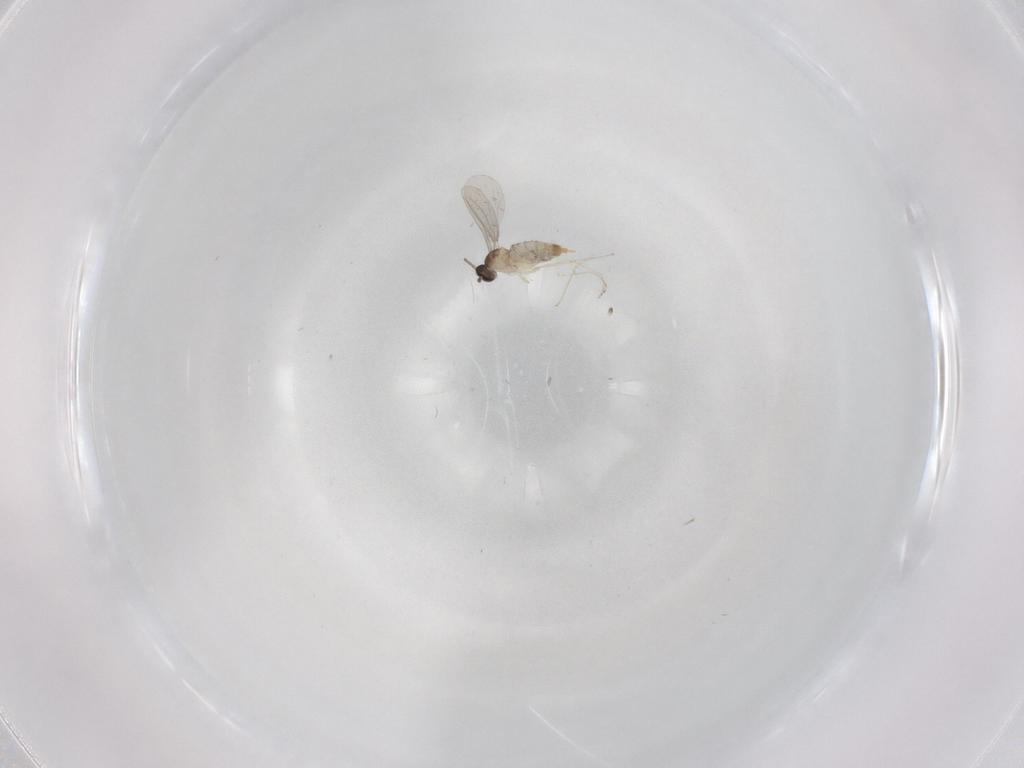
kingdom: Animalia
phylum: Arthropoda
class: Insecta
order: Diptera
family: Cecidomyiidae
